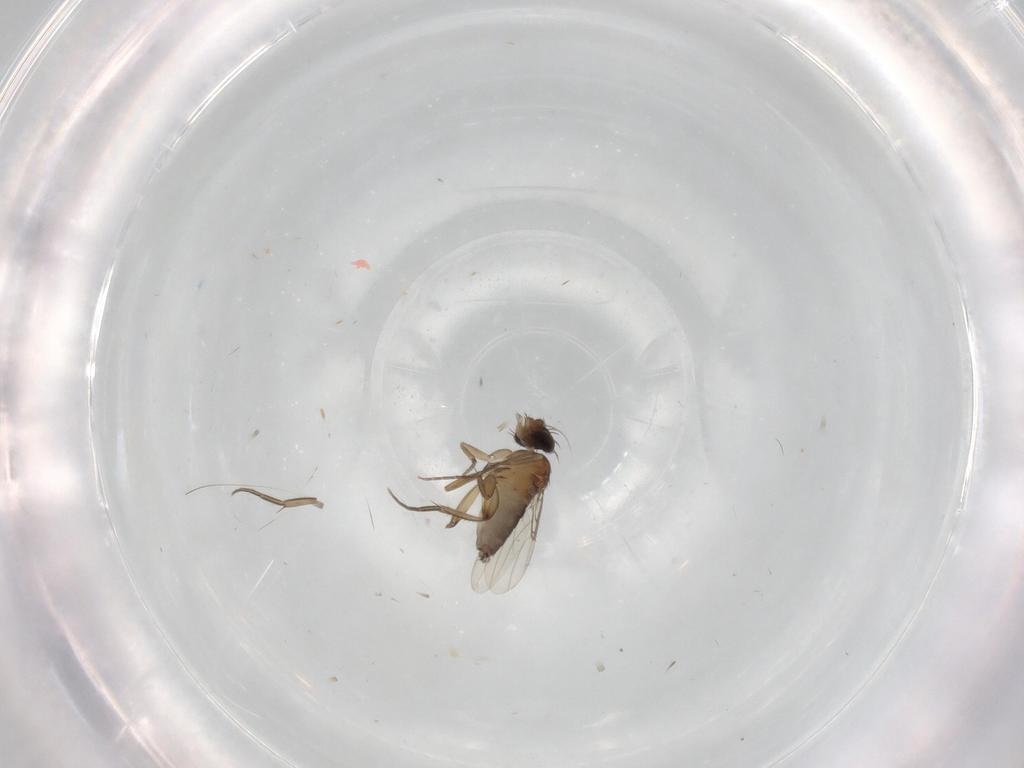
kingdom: Animalia
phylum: Arthropoda
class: Insecta
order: Diptera
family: Phoridae
